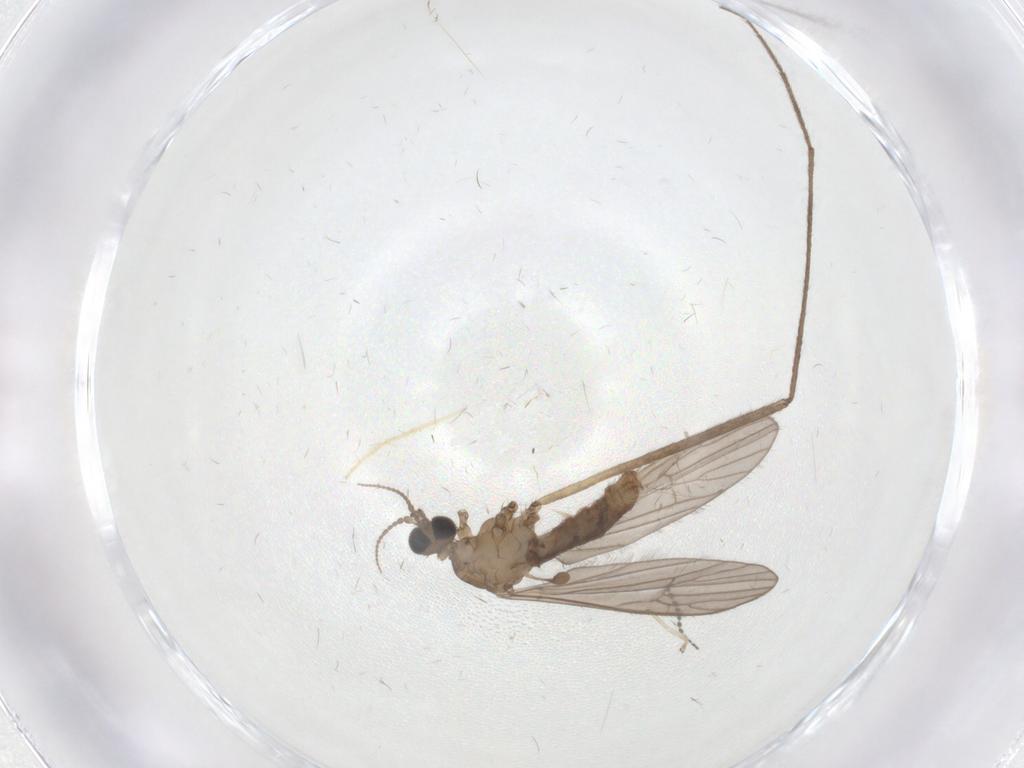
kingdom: Animalia
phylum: Arthropoda
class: Insecta
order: Diptera
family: Limoniidae
